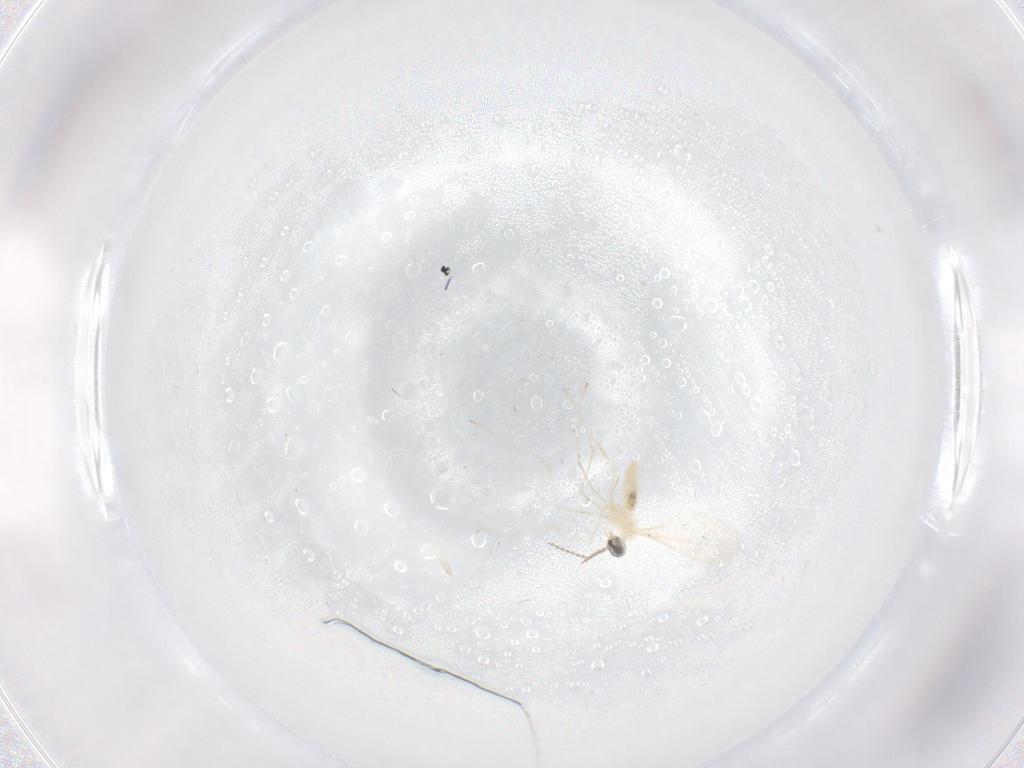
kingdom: Animalia
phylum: Arthropoda
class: Insecta
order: Diptera
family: Cecidomyiidae
